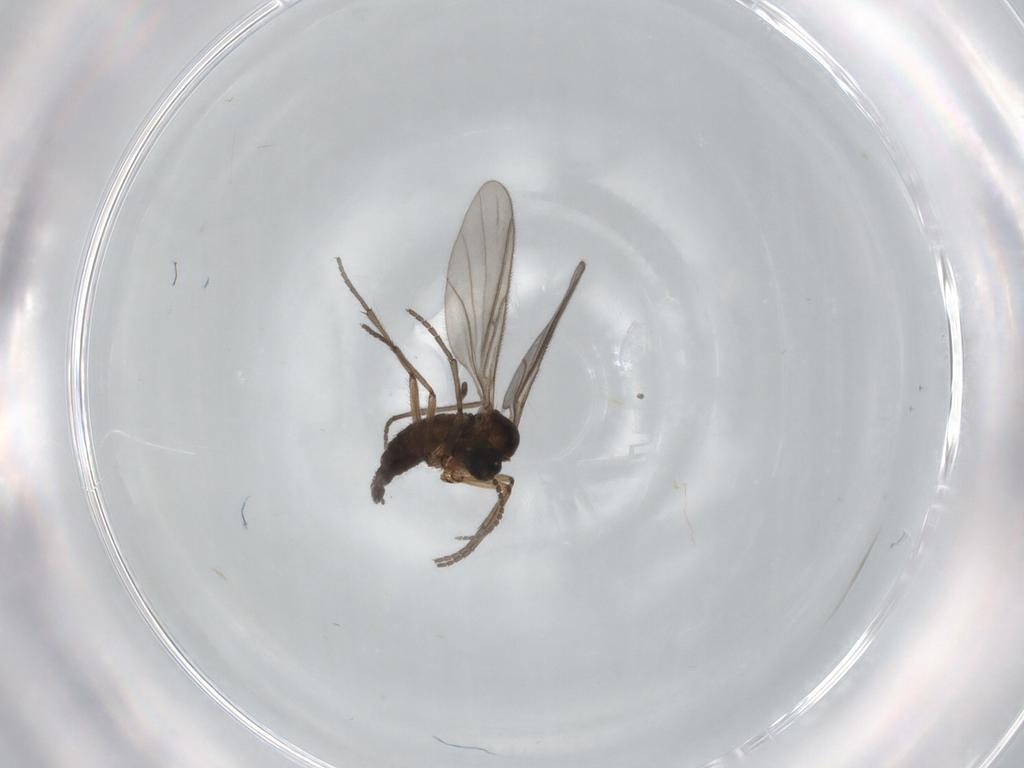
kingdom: Animalia
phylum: Arthropoda
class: Insecta
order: Diptera
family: Sciaridae
